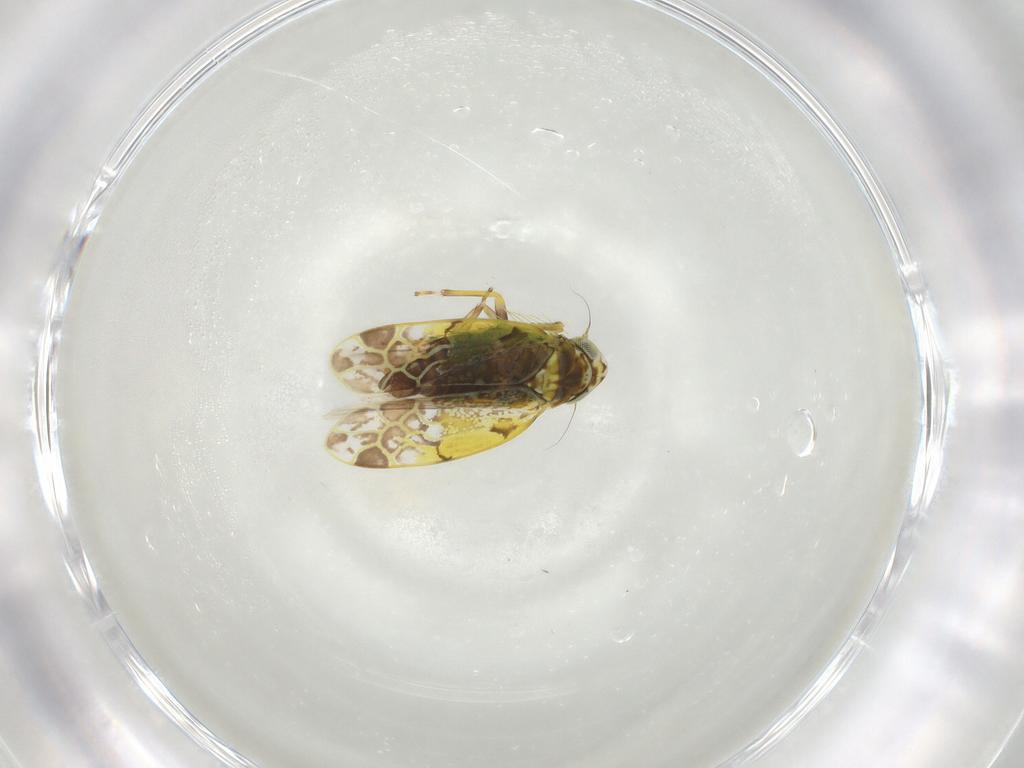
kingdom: Animalia
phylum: Arthropoda
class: Insecta
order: Hemiptera
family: Cicadellidae
